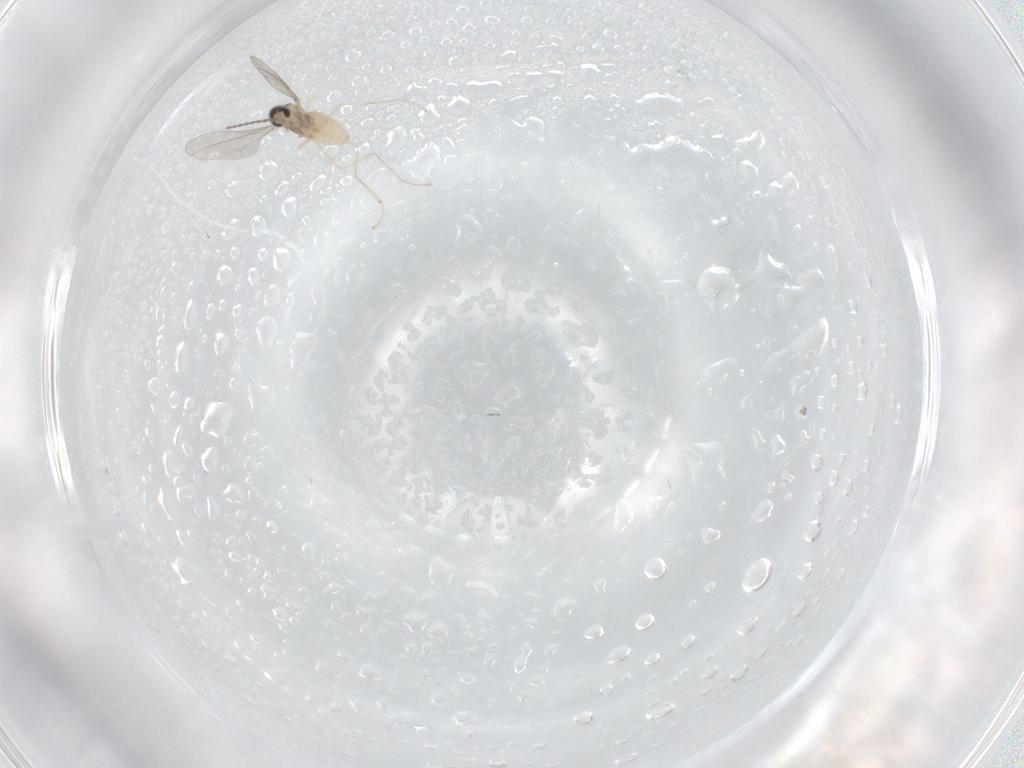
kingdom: Animalia
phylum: Arthropoda
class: Insecta
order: Diptera
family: Cecidomyiidae
